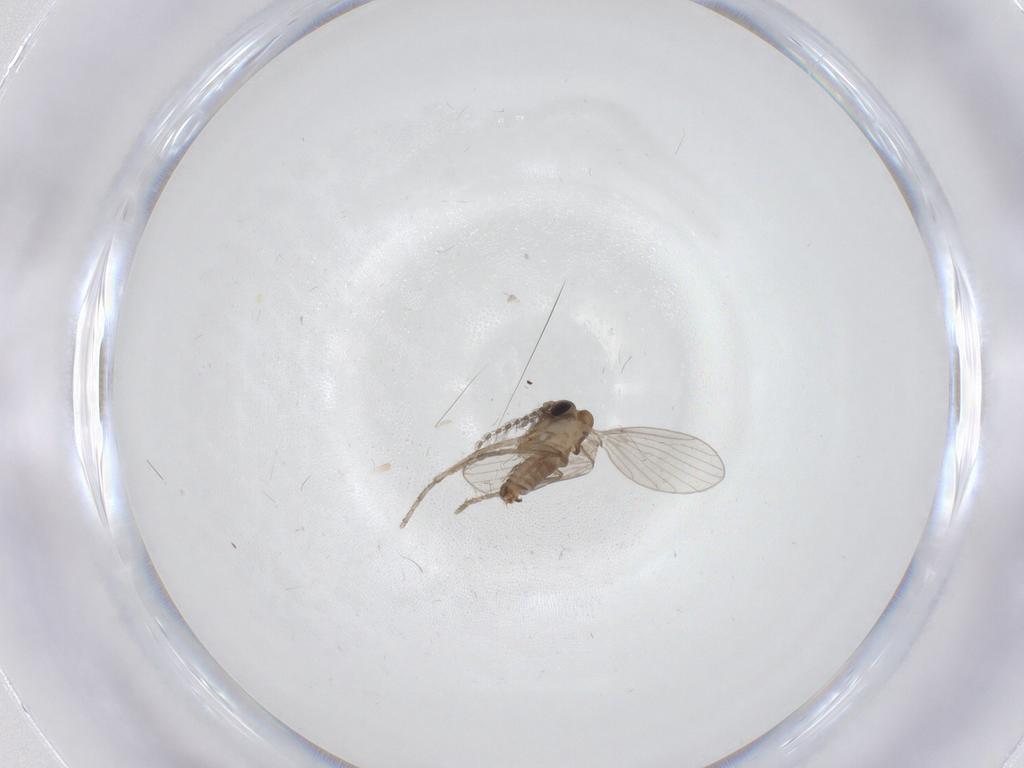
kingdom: Animalia
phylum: Arthropoda
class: Insecta
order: Diptera
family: Psychodidae
